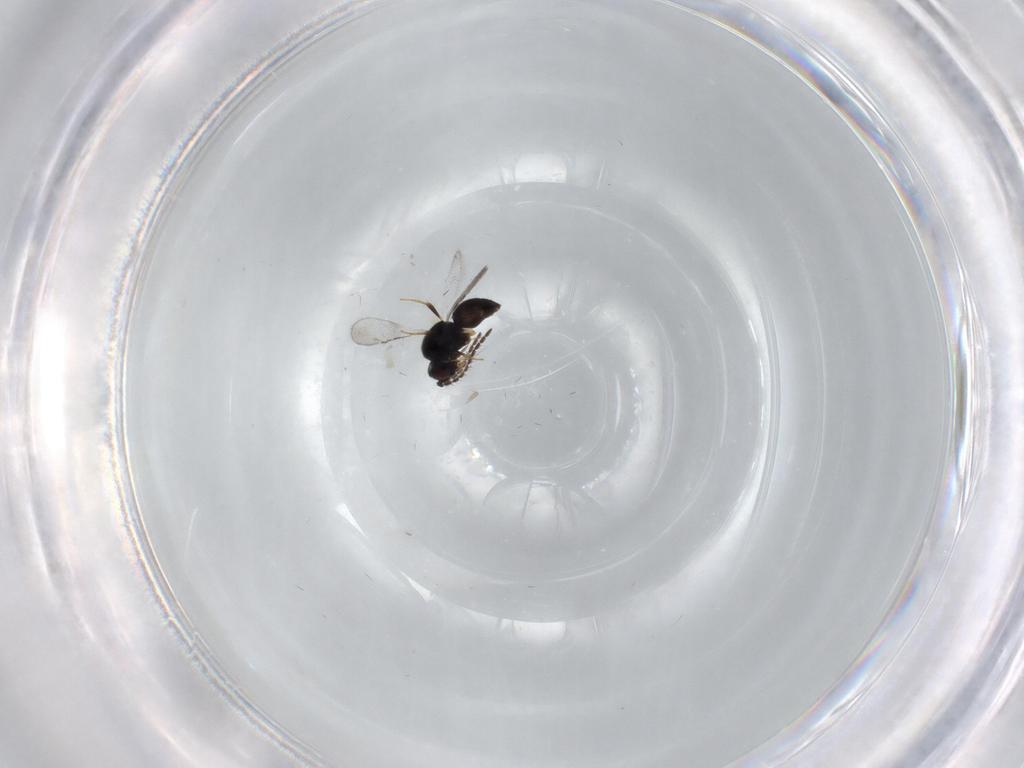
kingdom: Animalia
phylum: Arthropoda
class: Insecta
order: Hymenoptera
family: Ceraphronidae
